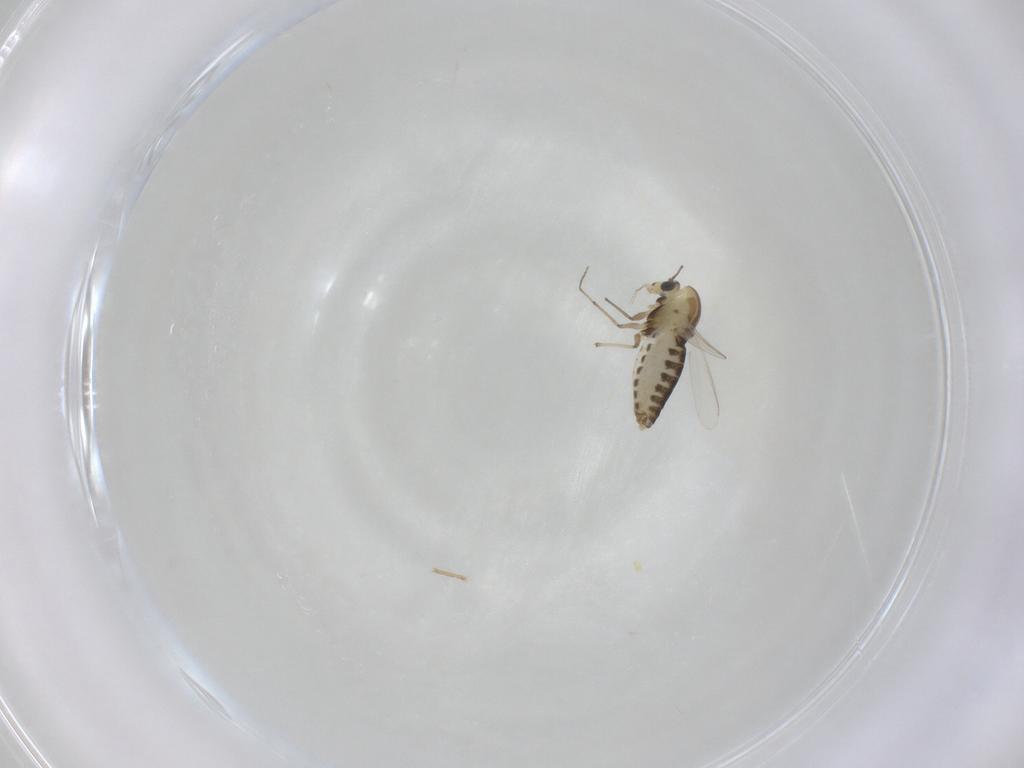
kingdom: Animalia
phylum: Arthropoda
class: Insecta
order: Diptera
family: Chironomidae
